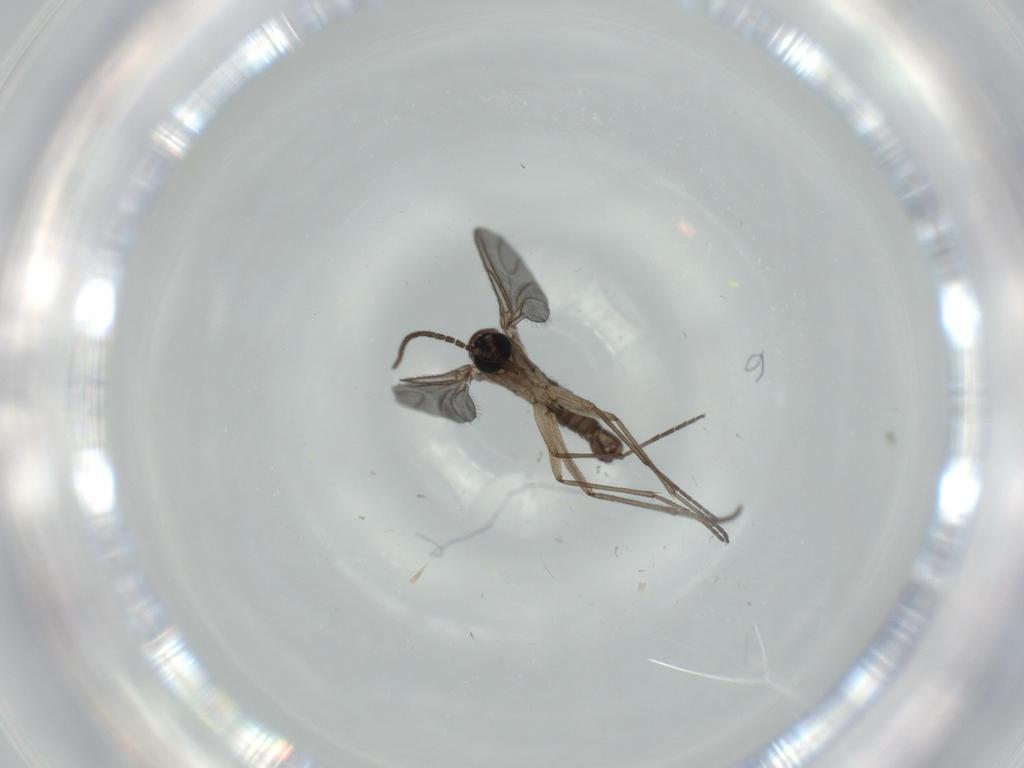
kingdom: Animalia
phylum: Arthropoda
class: Insecta
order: Diptera
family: Sciaridae
